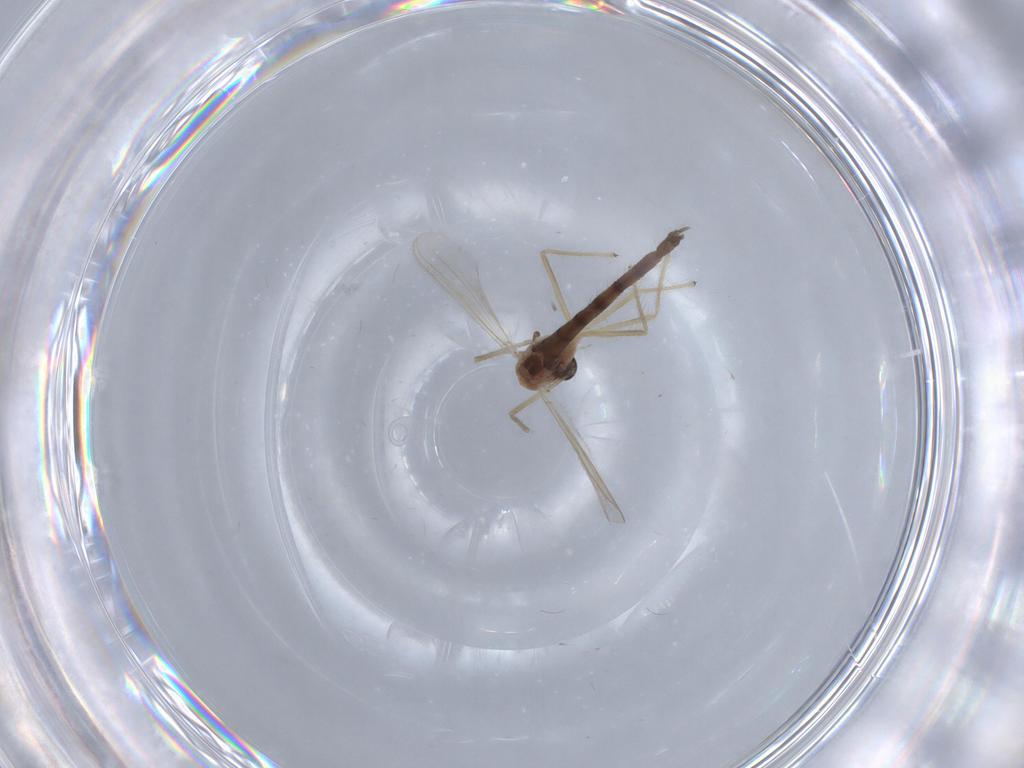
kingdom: Animalia
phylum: Arthropoda
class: Insecta
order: Diptera
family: Chironomidae
